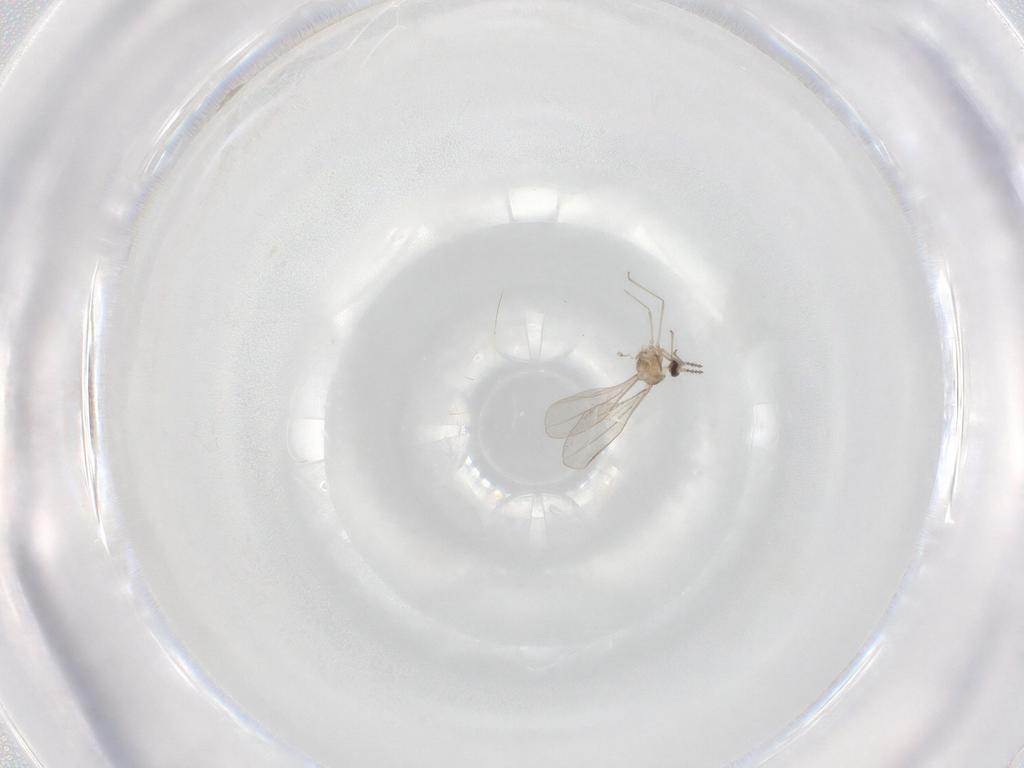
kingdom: Animalia
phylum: Arthropoda
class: Insecta
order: Diptera
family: Cecidomyiidae
